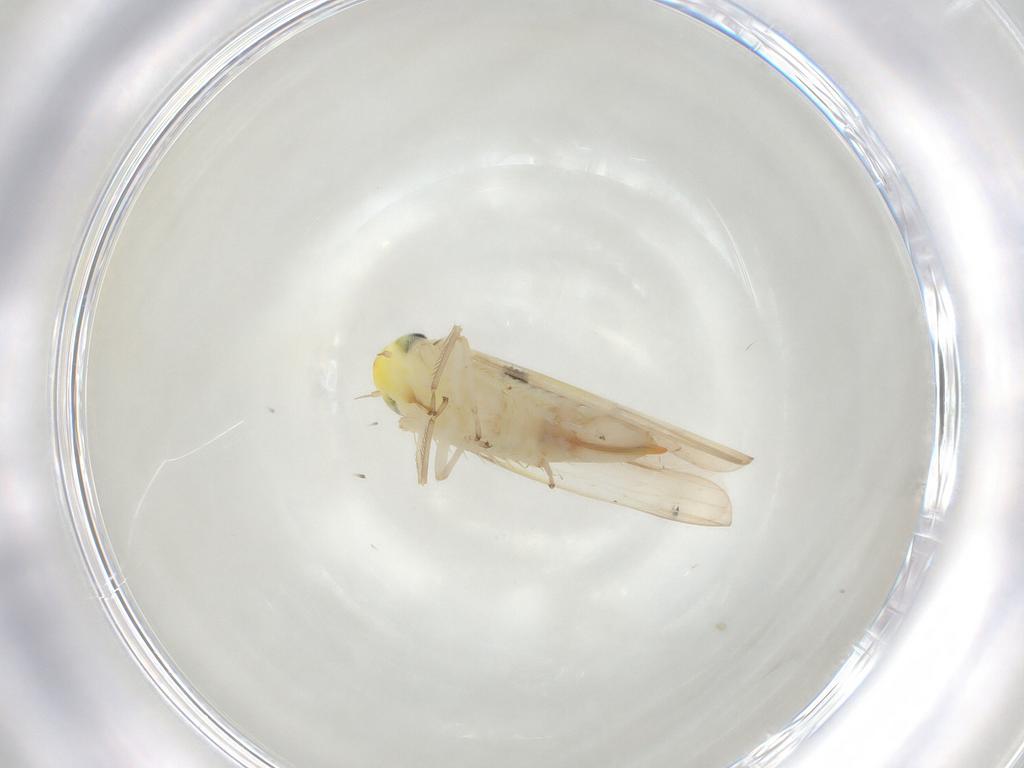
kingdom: Animalia
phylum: Arthropoda
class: Insecta
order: Hemiptera
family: Cicadellidae
